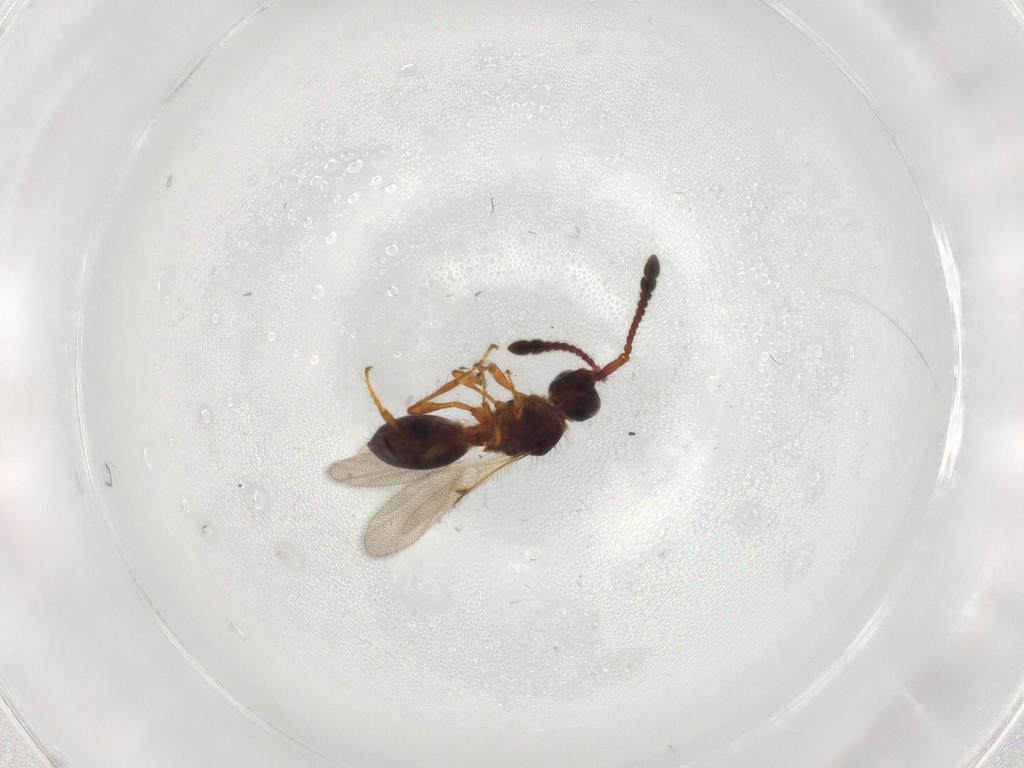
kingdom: Animalia
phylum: Arthropoda
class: Insecta
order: Hymenoptera
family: Diapriidae
